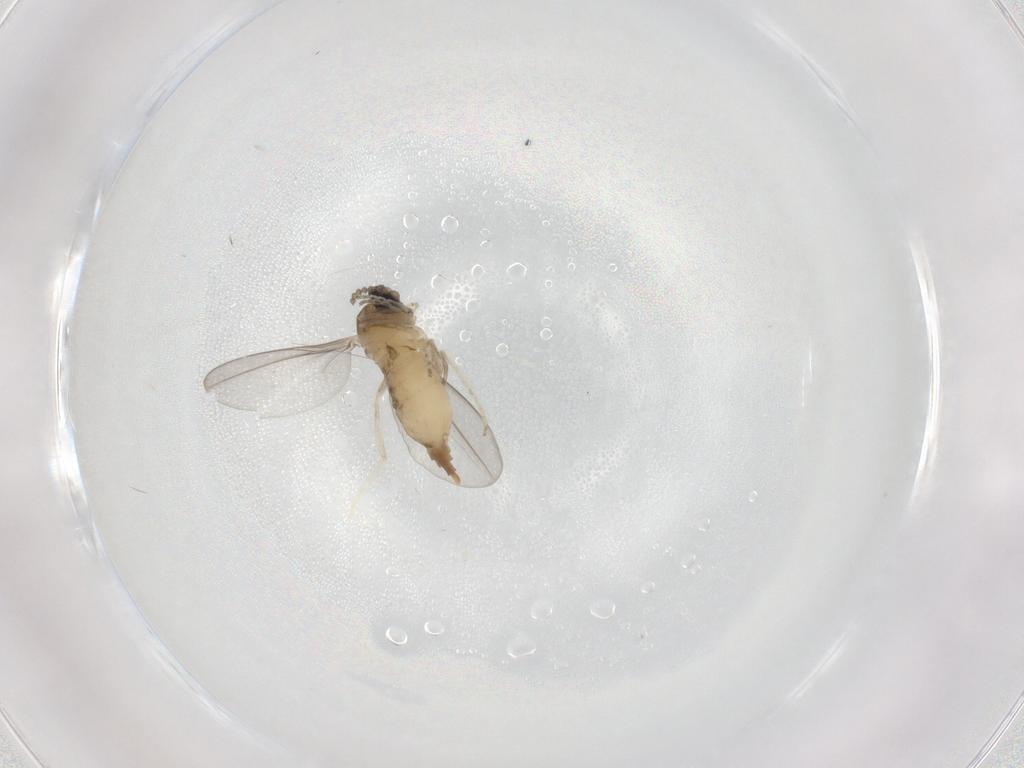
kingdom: Animalia
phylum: Arthropoda
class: Insecta
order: Diptera
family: Cecidomyiidae
